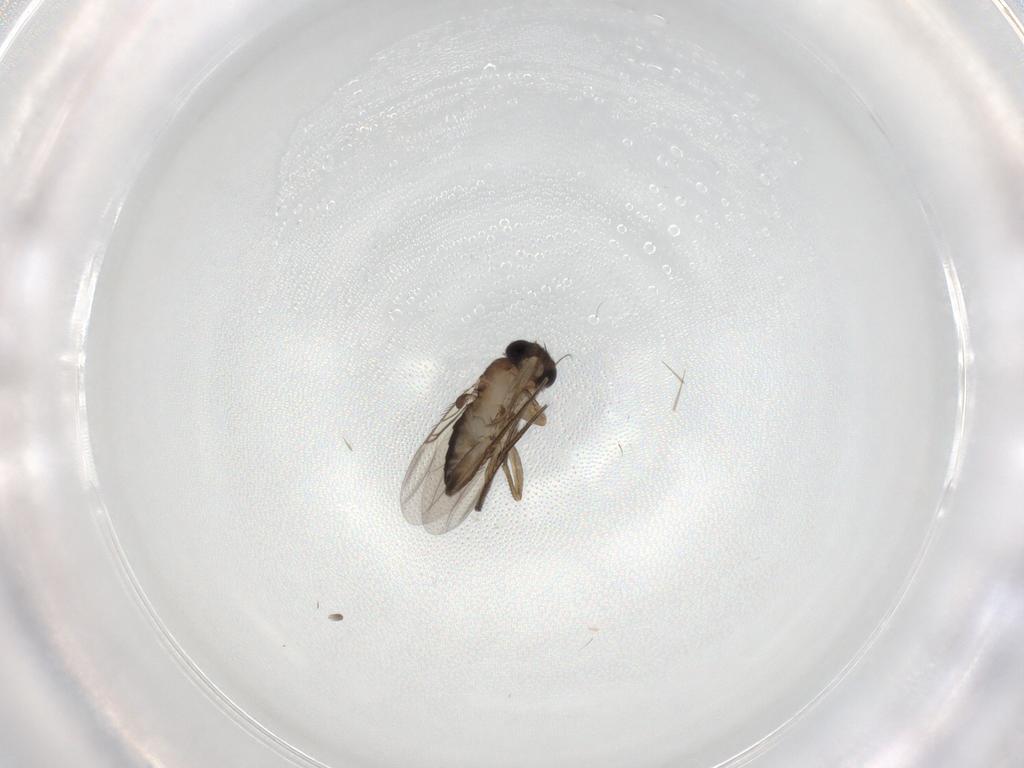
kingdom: Animalia
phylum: Arthropoda
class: Insecta
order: Diptera
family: Phoridae
